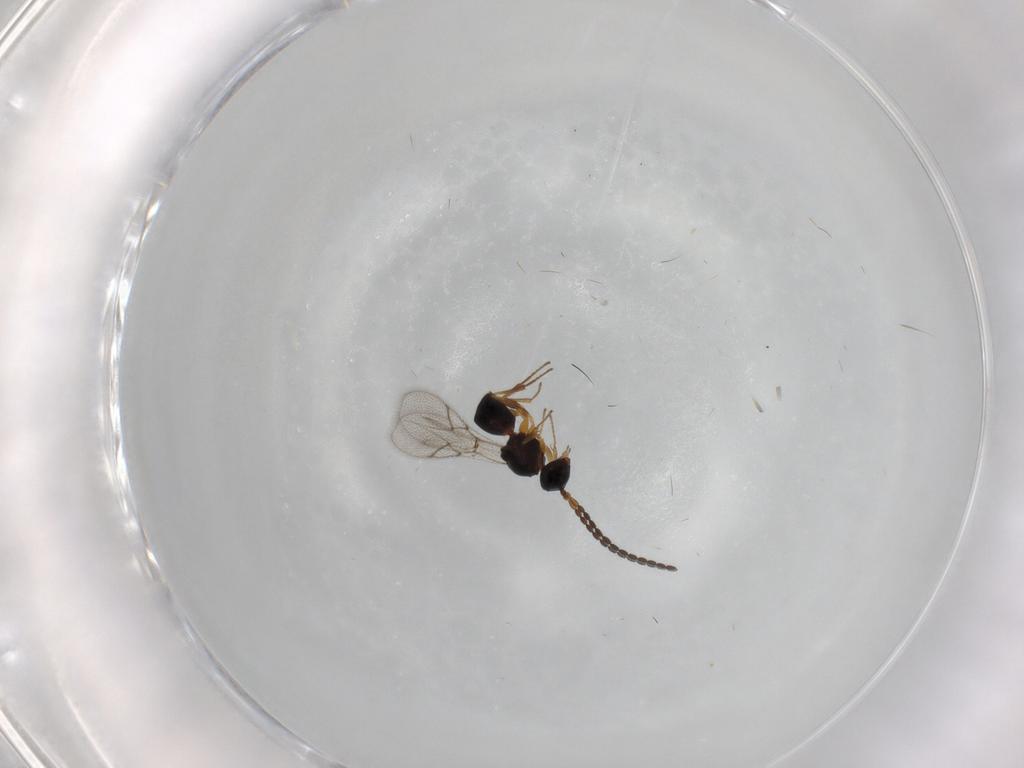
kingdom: Animalia
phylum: Arthropoda
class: Insecta
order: Hymenoptera
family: Figitidae
